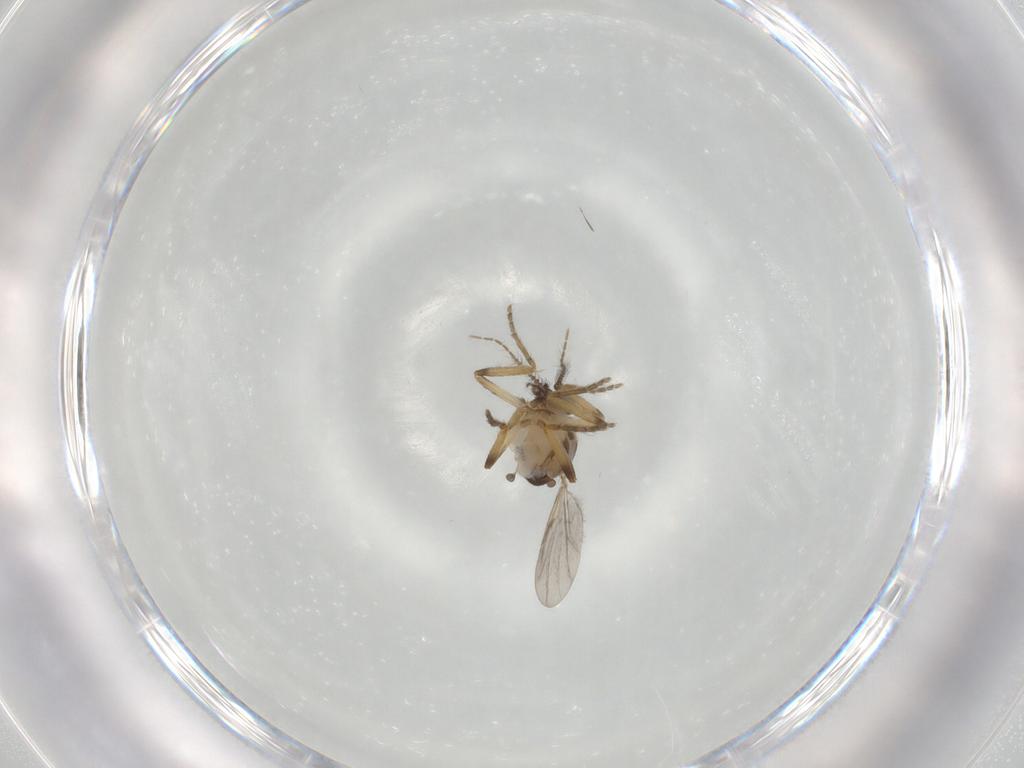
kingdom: Animalia
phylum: Arthropoda
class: Insecta
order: Diptera
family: Ceratopogonidae
